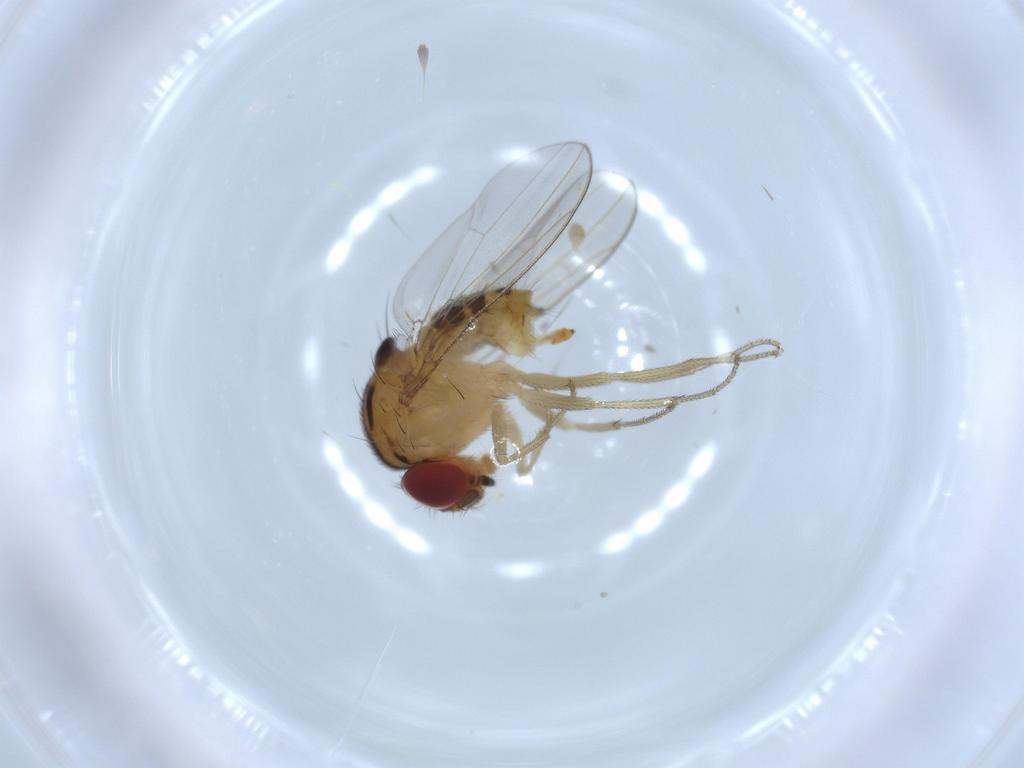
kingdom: Animalia
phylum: Arthropoda
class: Insecta
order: Diptera
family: Drosophilidae
